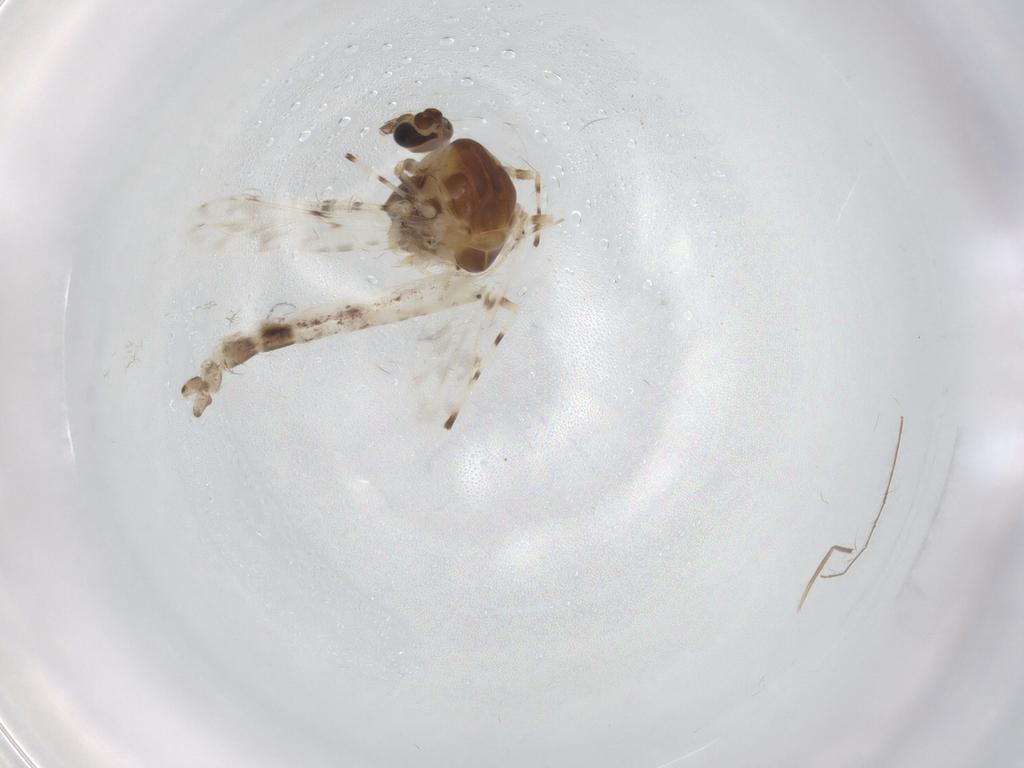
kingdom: Animalia
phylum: Arthropoda
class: Insecta
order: Diptera
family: Chironomidae
